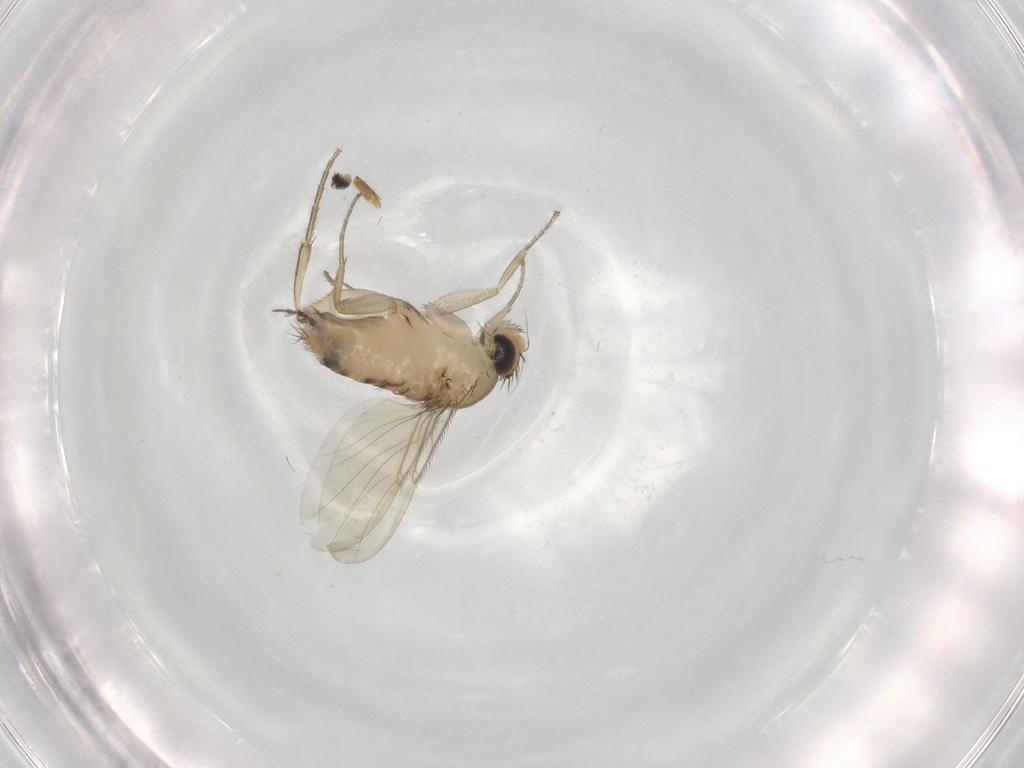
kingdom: Animalia
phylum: Arthropoda
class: Insecta
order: Diptera
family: Phoridae
